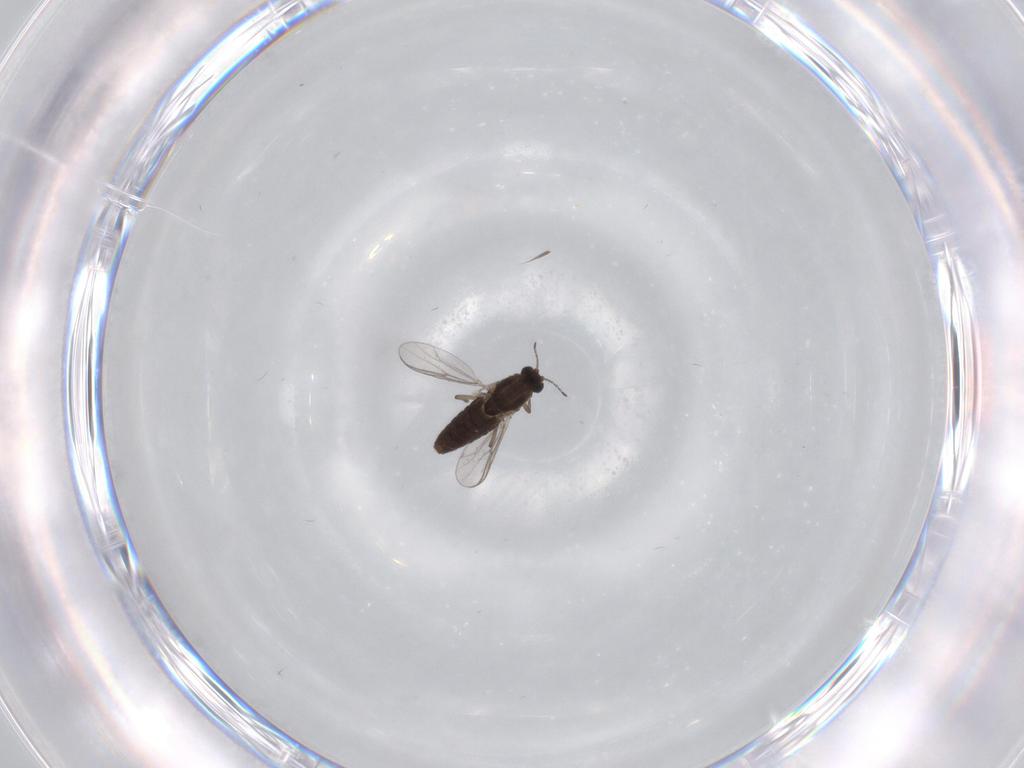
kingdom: Animalia
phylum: Arthropoda
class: Insecta
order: Diptera
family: Chironomidae
